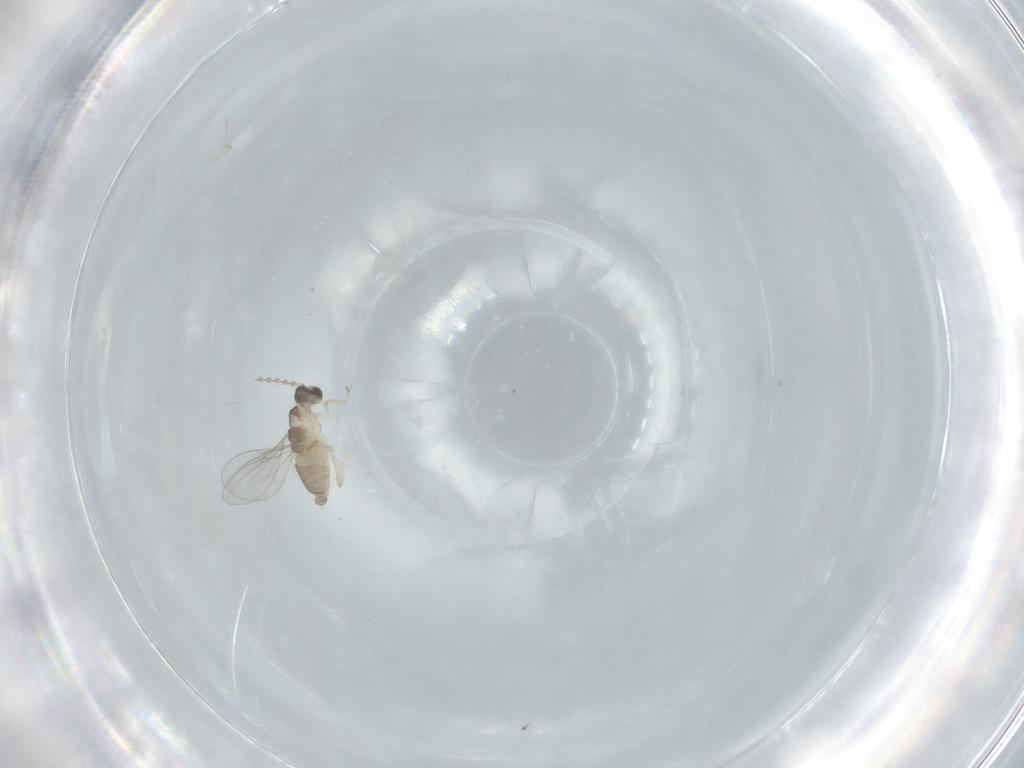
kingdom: Animalia
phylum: Arthropoda
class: Insecta
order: Diptera
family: Cecidomyiidae
